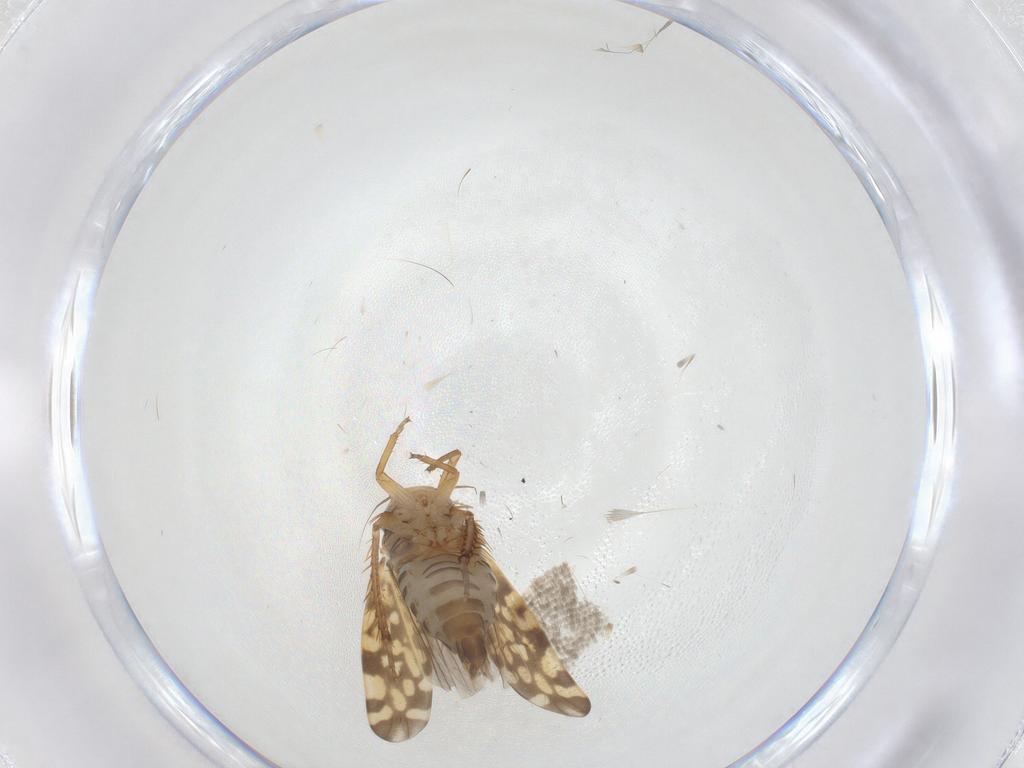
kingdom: Animalia
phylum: Arthropoda
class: Insecta
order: Hemiptera
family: Cicadellidae
